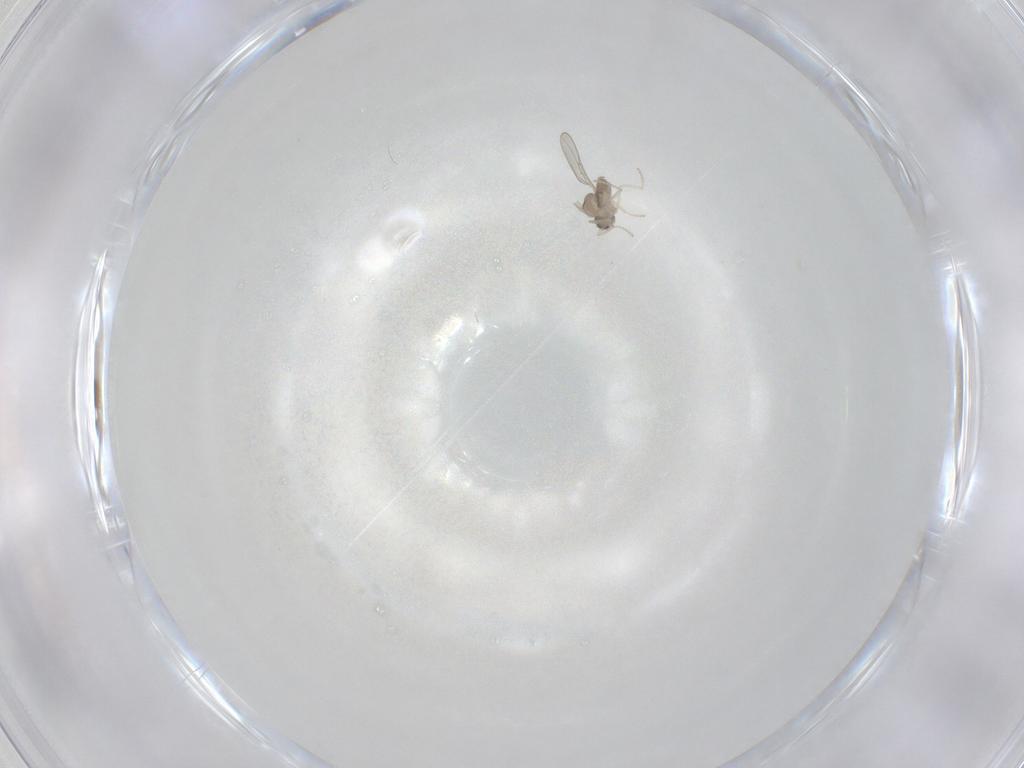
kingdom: Animalia
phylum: Arthropoda
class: Insecta
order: Diptera
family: Cecidomyiidae
